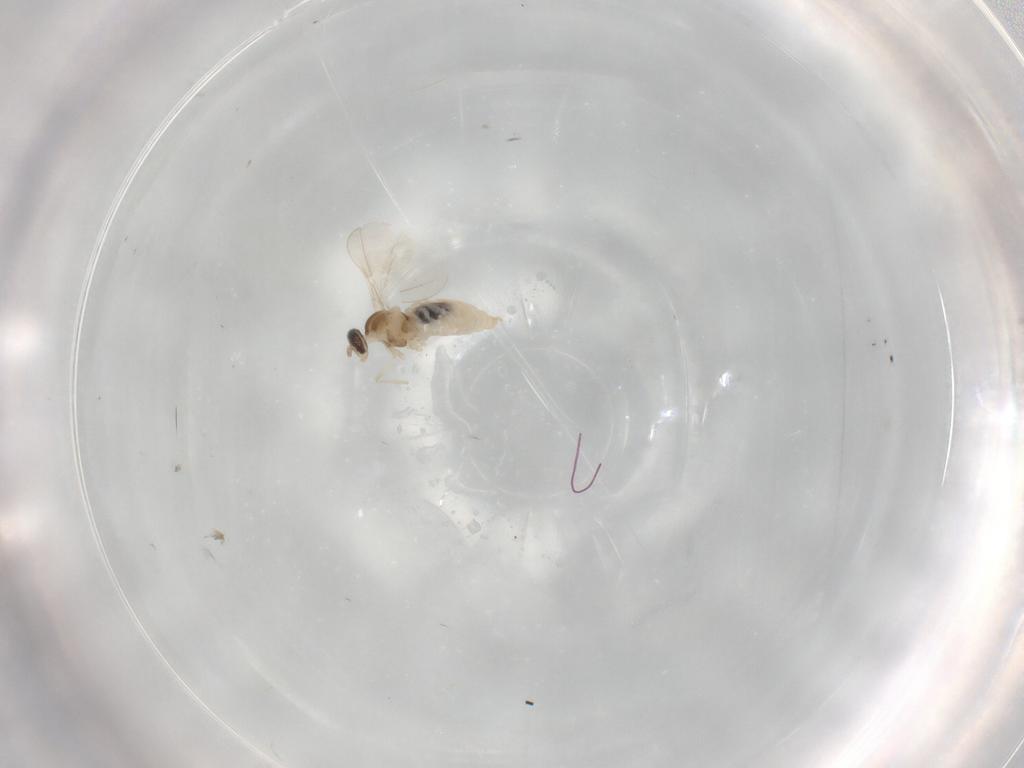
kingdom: Animalia
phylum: Arthropoda
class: Insecta
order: Diptera
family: Cecidomyiidae
